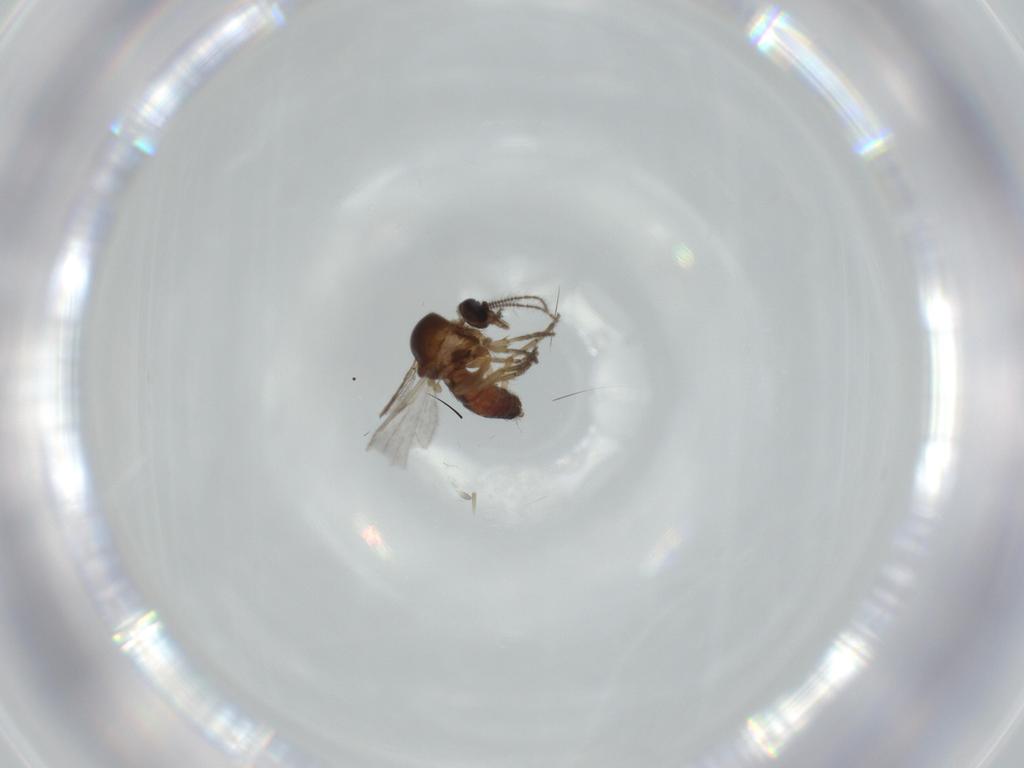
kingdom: Animalia
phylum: Arthropoda
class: Insecta
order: Diptera
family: Ceratopogonidae
